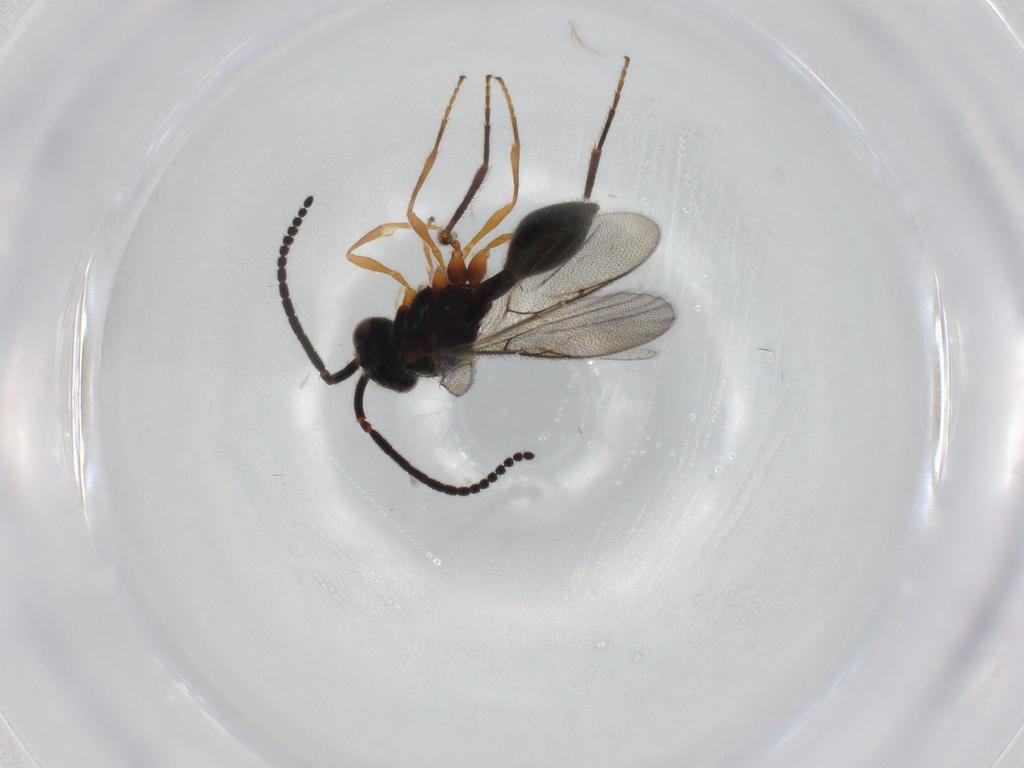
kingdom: Animalia
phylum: Arthropoda
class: Insecta
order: Hymenoptera
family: Diapriidae
